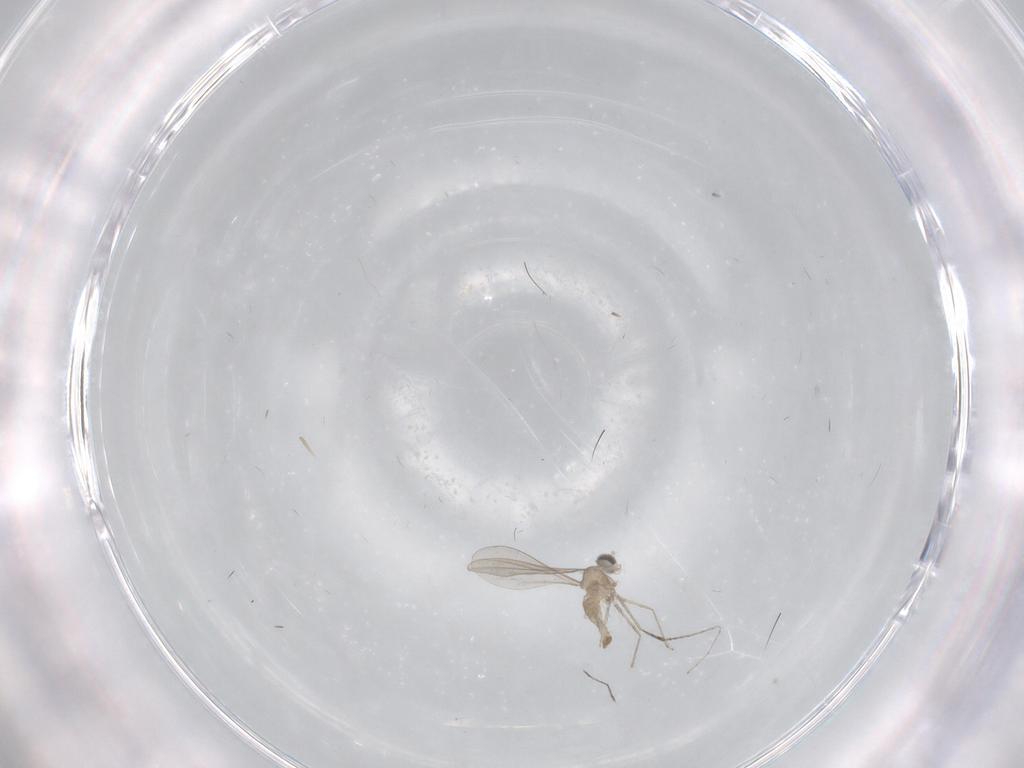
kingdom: Animalia
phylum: Arthropoda
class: Insecta
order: Diptera
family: Cecidomyiidae
